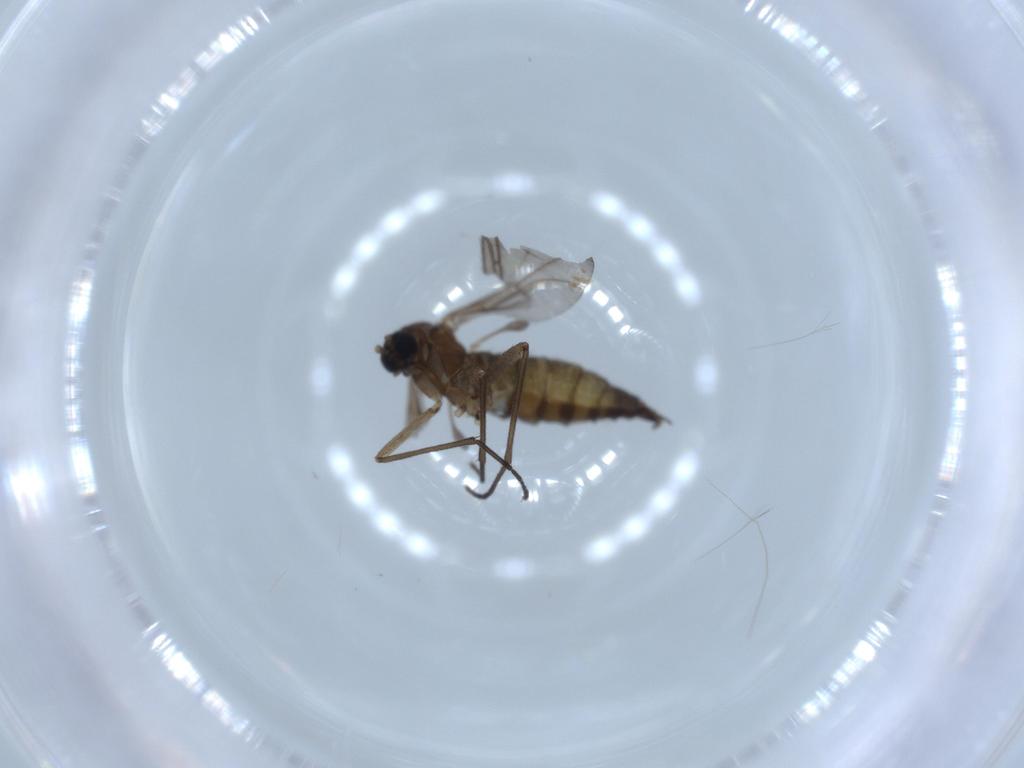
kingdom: Animalia
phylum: Arthropoda
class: Insecta
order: Diptera
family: Sciaridae
